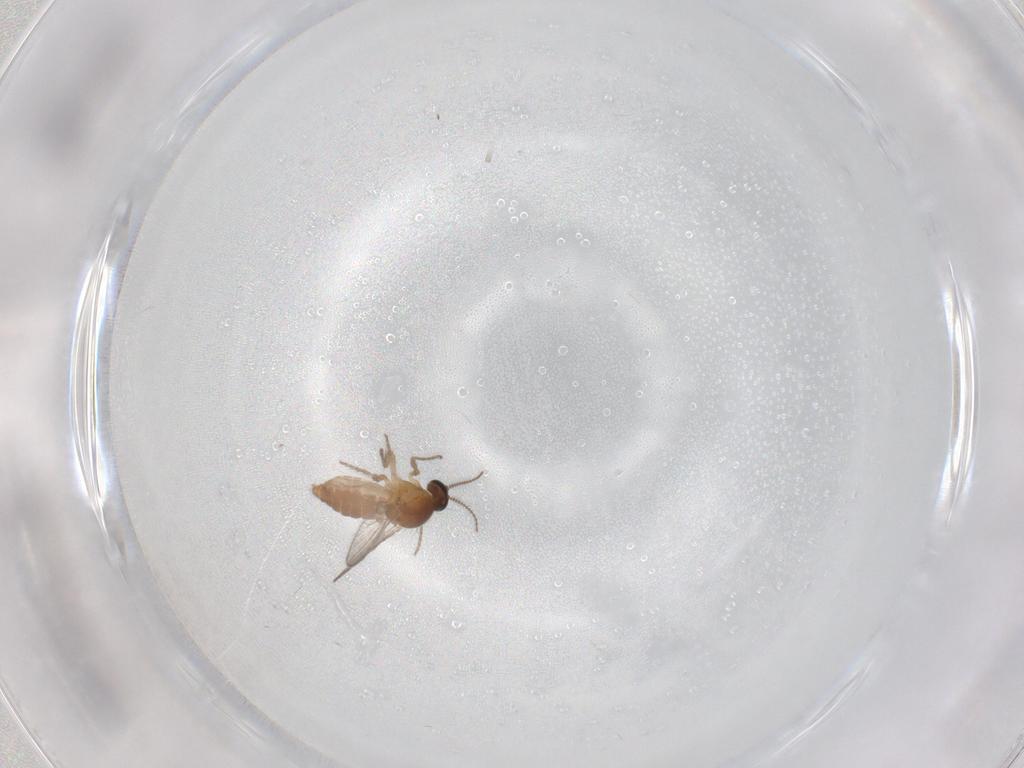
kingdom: Animalia
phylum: Arthropoda
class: Insecta
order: Diptera
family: Ceratopogonidae
